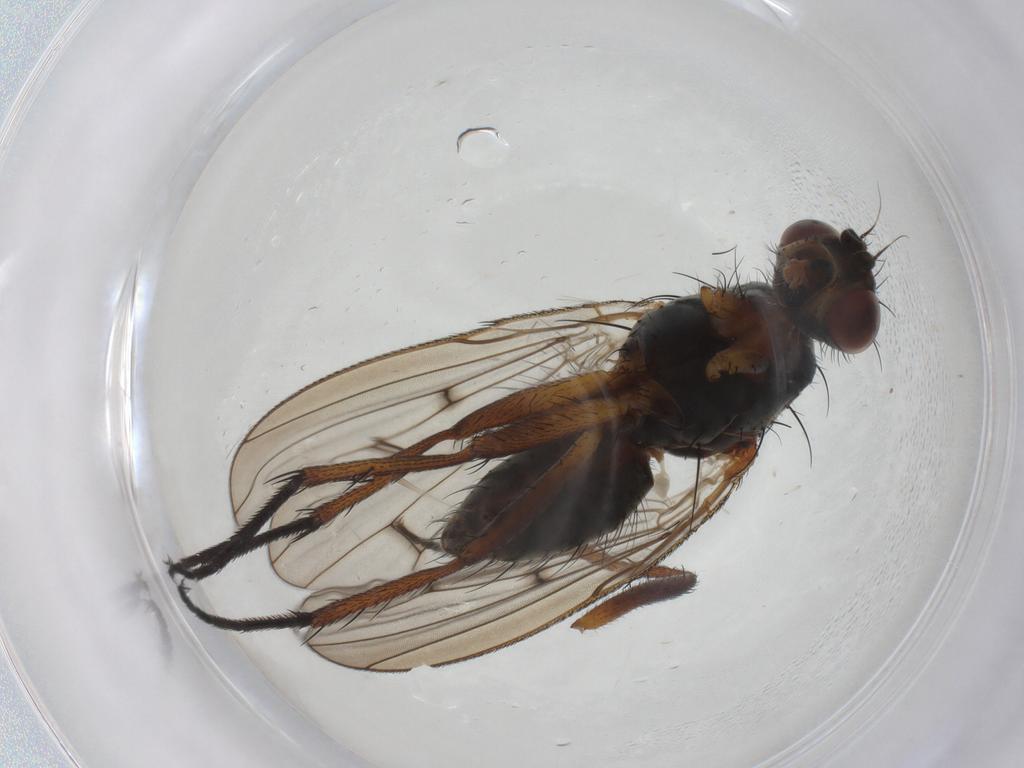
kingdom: Animalia
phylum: Arthropoda
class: Insecta
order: Diptera
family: Anthomyiidae
